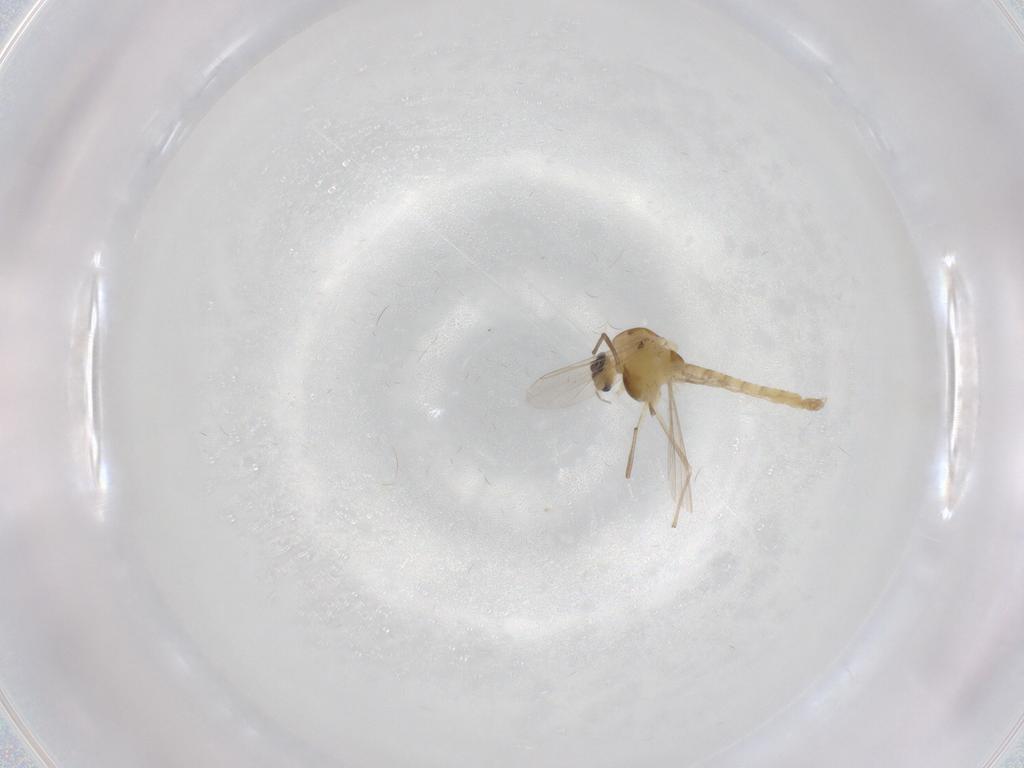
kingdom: Animalia
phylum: Arthropoda
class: Insecta
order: Diptera
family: Chironomidae
